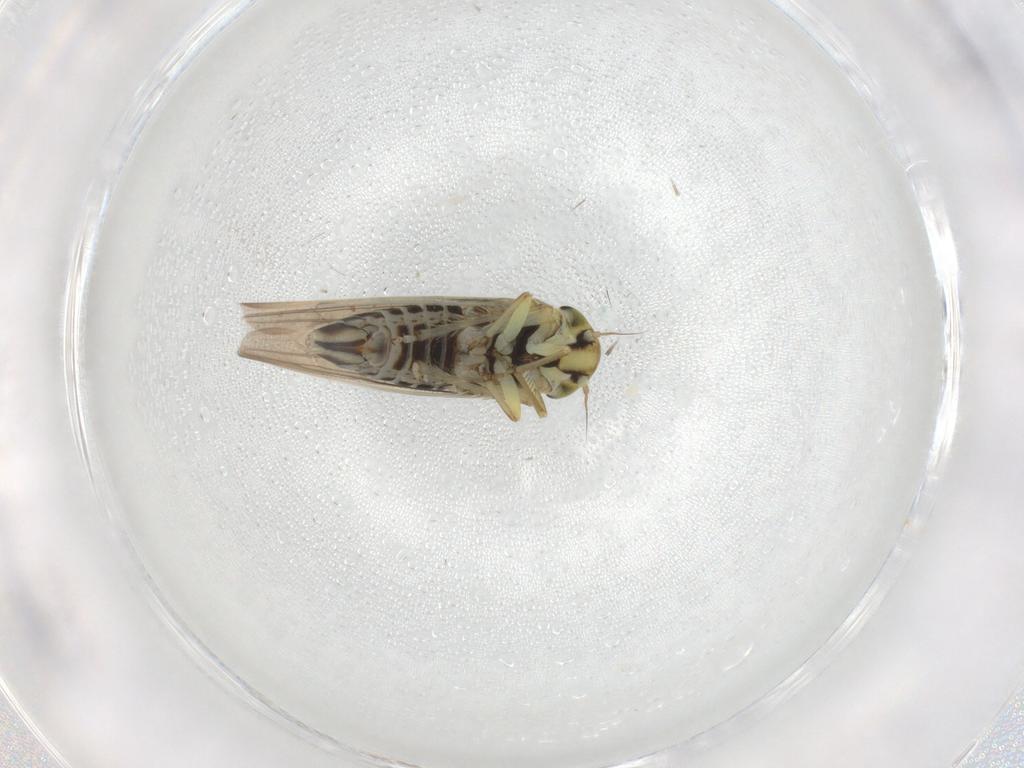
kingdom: Animalia
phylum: Arthropoda
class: Insecta
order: Hemiptera
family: Cicadellidae
